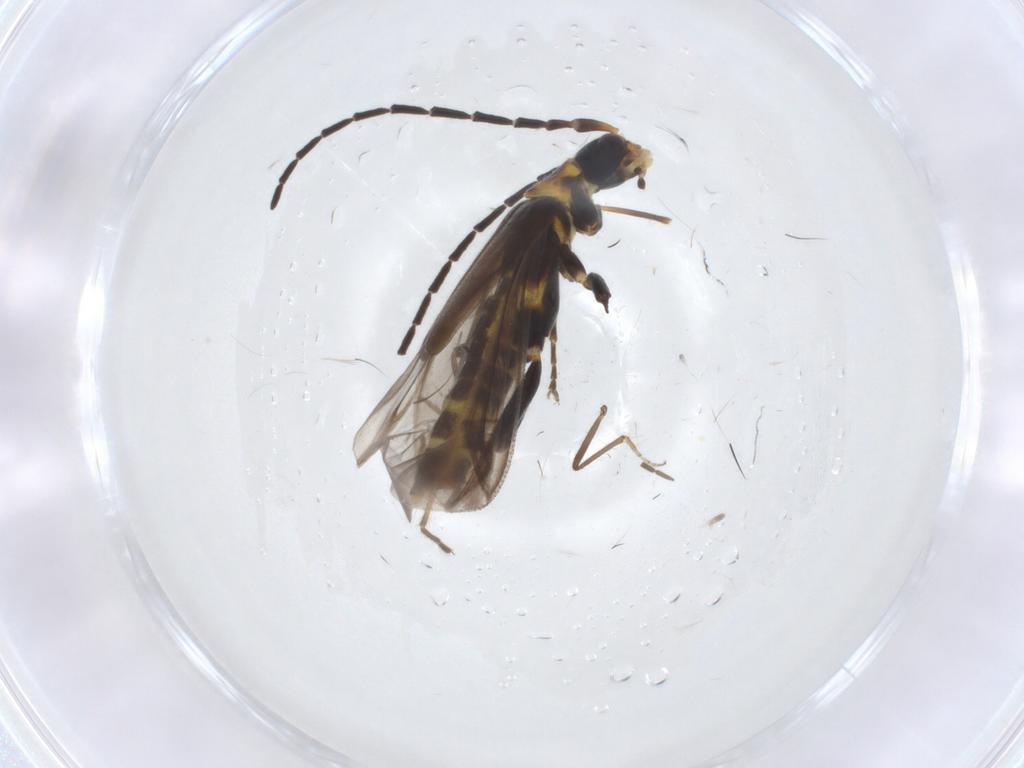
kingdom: Animalia
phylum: Arthropoda
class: Insecta
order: Coleoptera
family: Cantharidae
